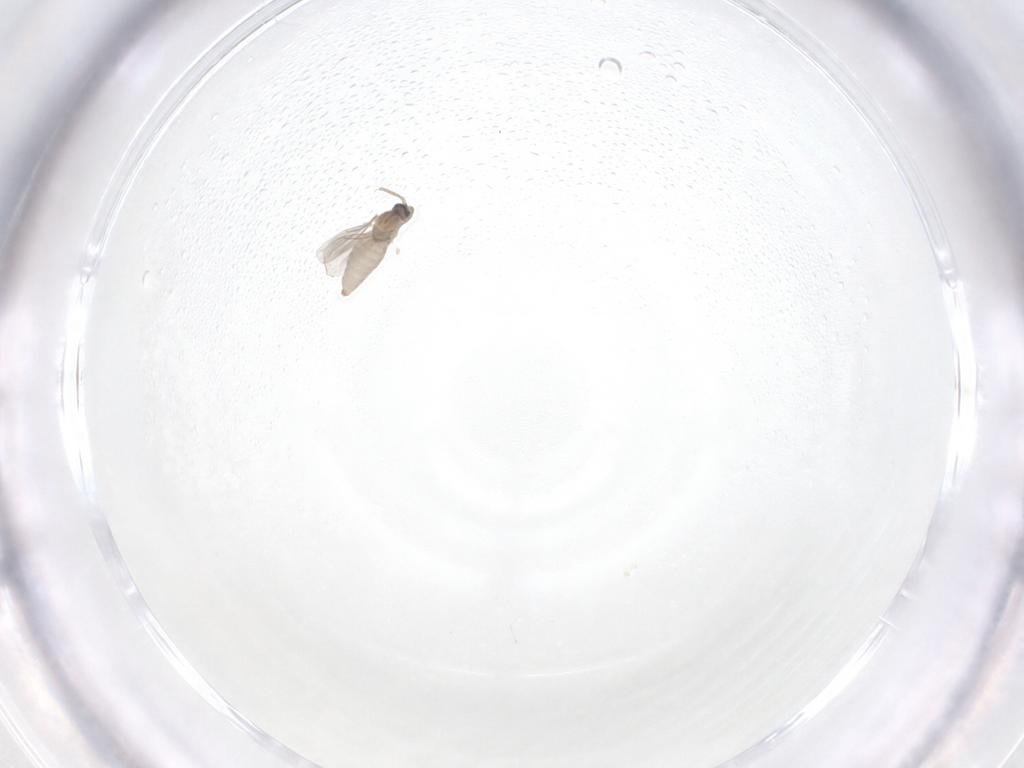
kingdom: Animalia
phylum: Arthropoda
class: Insecta
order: Diptera
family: Cecidomyiidae
